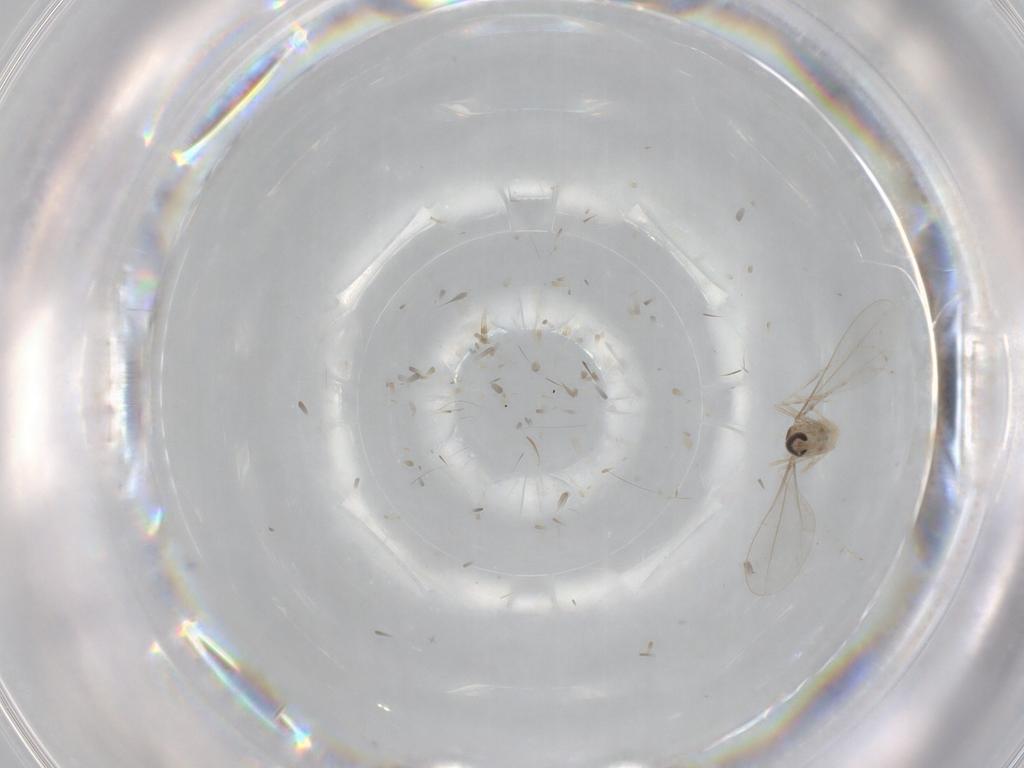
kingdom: Animalia
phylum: Arthropoda
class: Insecta
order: Diptera
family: Cecidomyiidae
